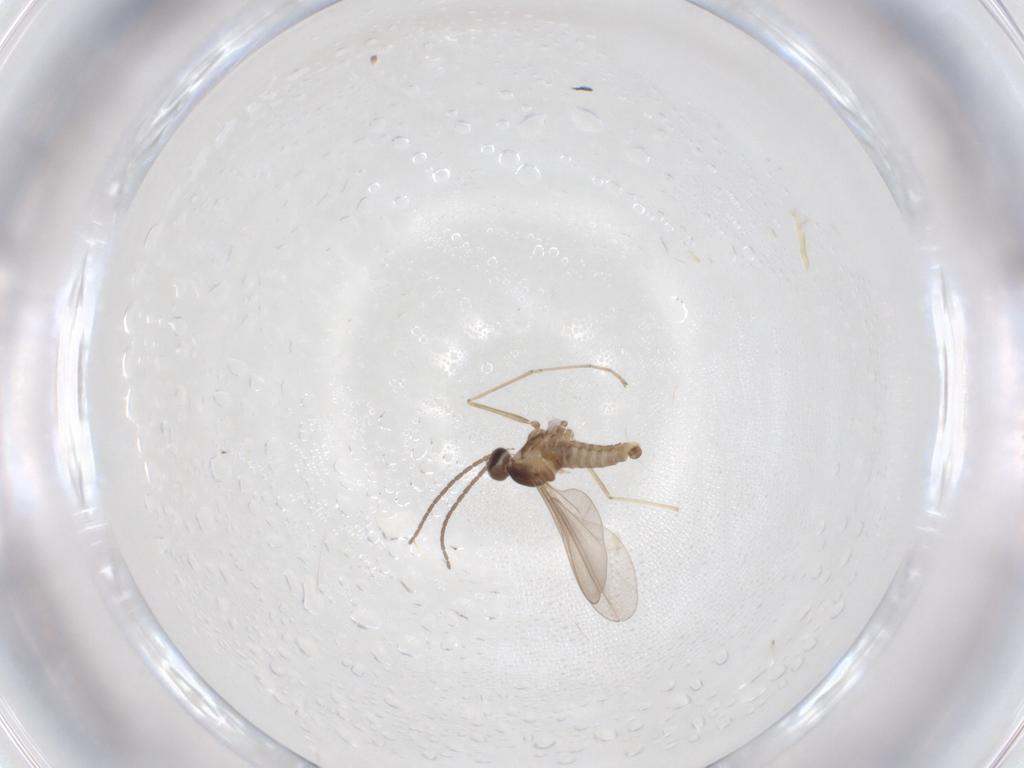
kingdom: Animalia
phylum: Arthropoda
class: Insecta
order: Diptera
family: Cecidomyiidae
